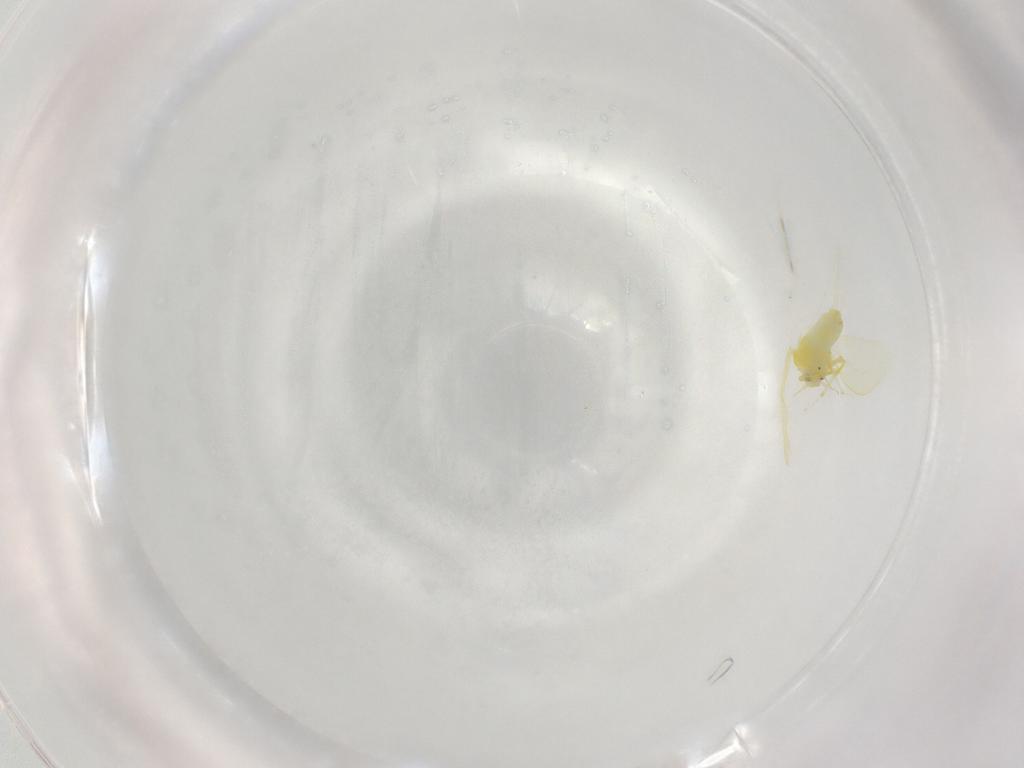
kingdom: Animalia
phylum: Arthropoda
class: Insecta
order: Hemiptera
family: Aleyrodidae
